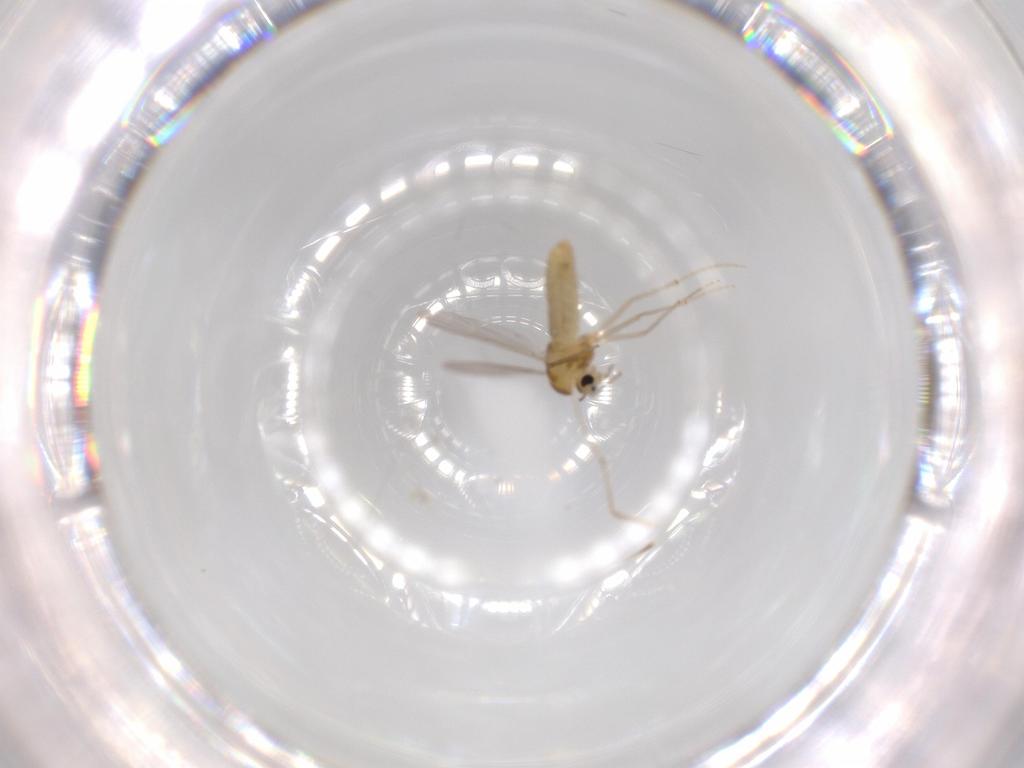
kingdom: Animalia
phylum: Arthropoda
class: Insecta
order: Diptera
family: Chironomidae
